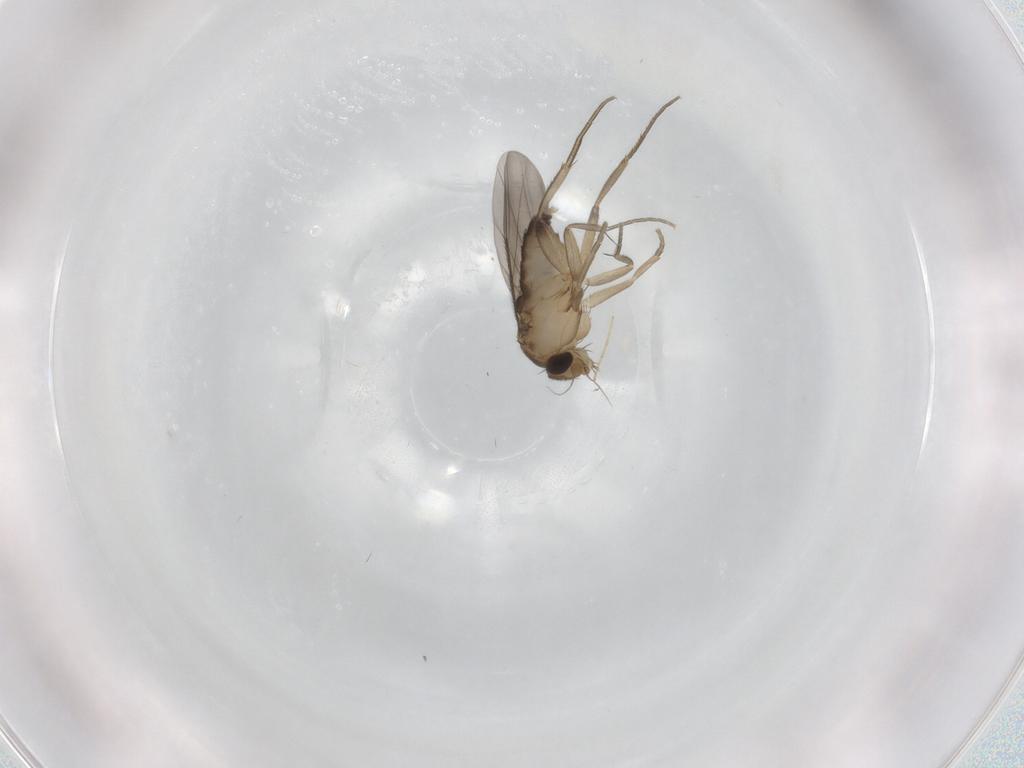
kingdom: Animalia
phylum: Arthropoda
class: Insecta
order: Diptera
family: Phoridae
